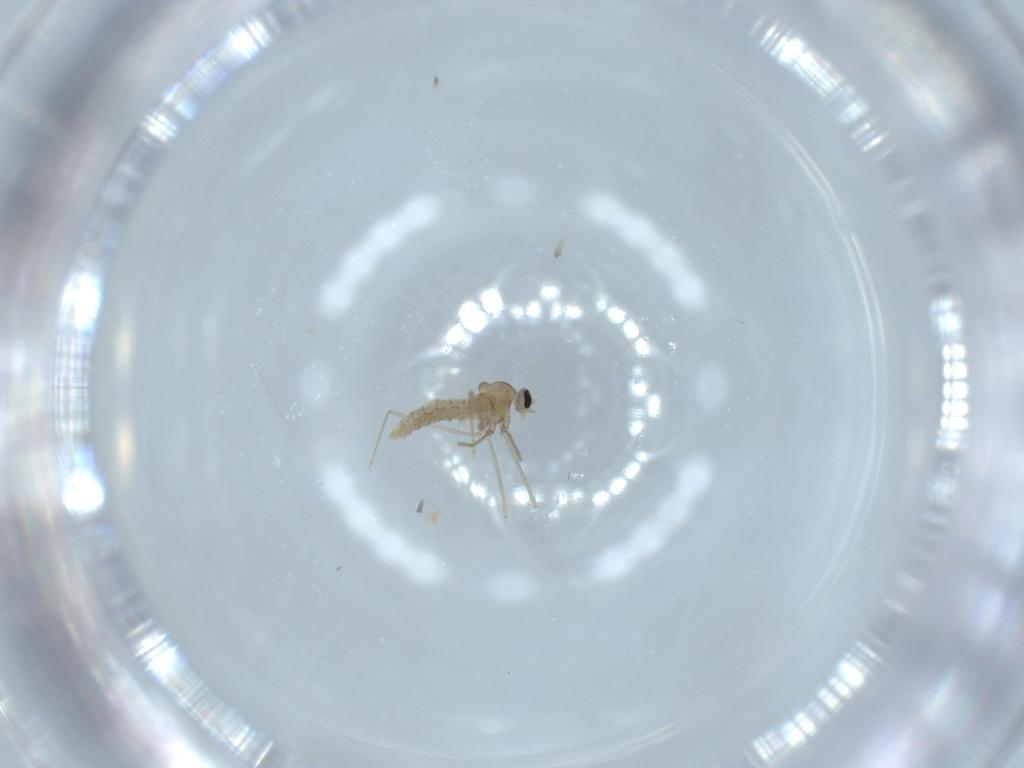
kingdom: Animalia
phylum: Arthropoda
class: Insecta
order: Diptera
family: Cecidomyiidae
